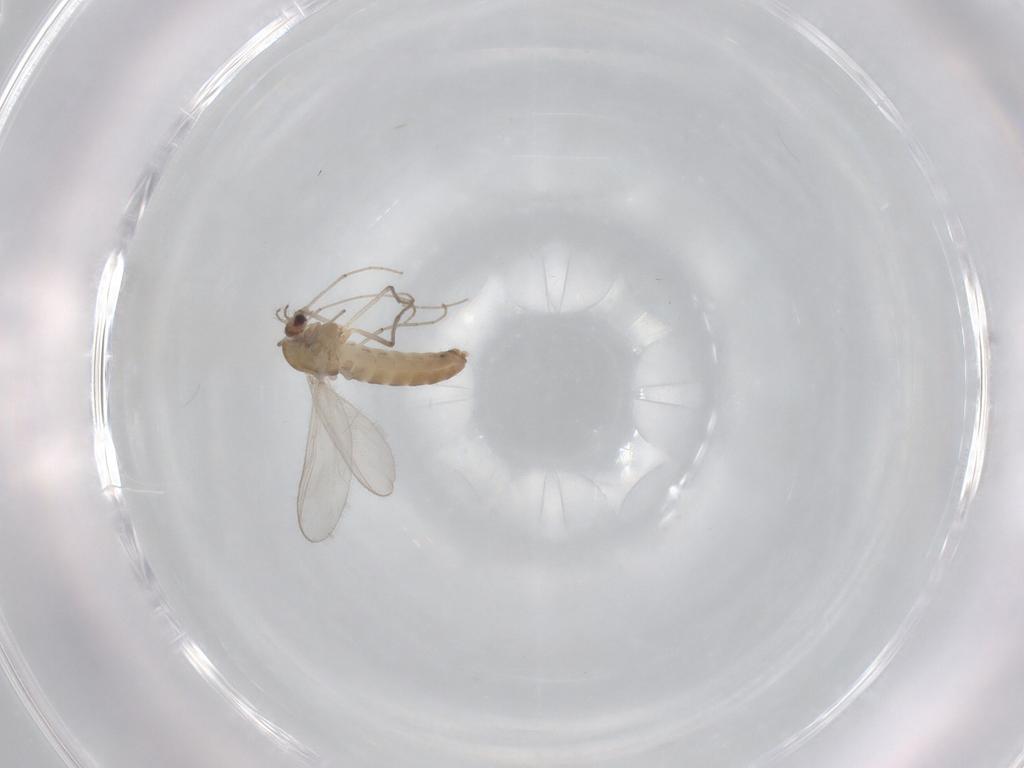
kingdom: Animalia
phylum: Arthropoda
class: Insecta
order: Diptera
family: Chironomidae
